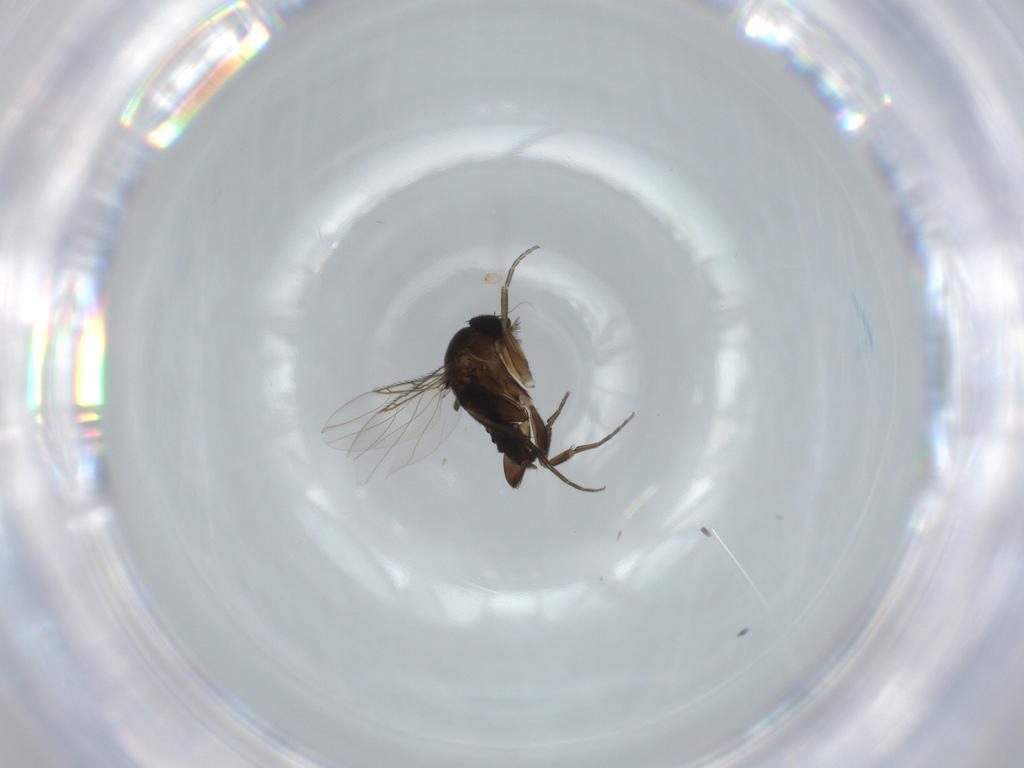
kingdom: Animalia
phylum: Arthropoda
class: Insecta
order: Diptera
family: Phoridae
